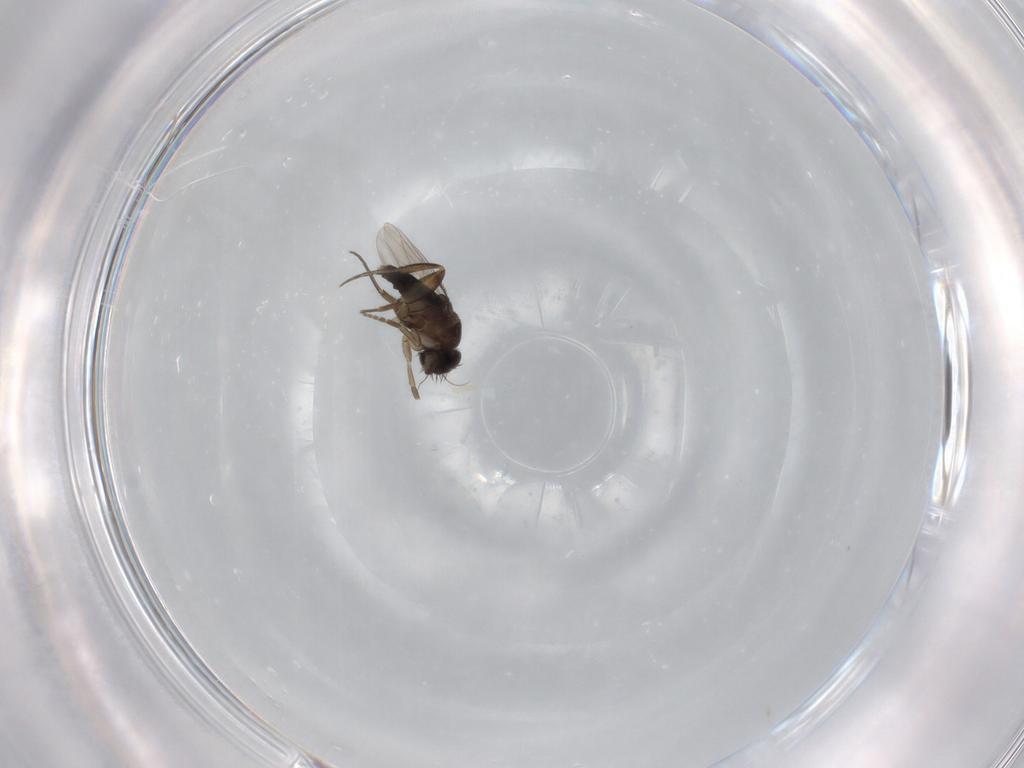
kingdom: Animalia
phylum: Arthropoda
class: Insecta
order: Diptera
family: Phoridae
